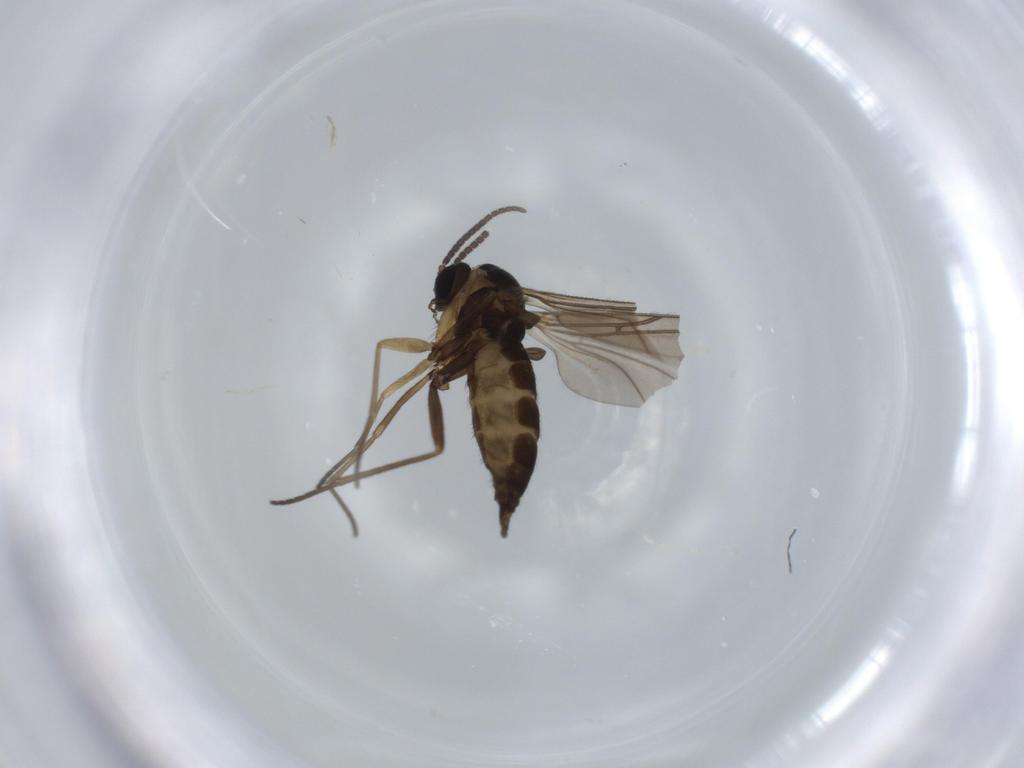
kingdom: Animalia
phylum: Arthropoda
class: Insecta
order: Diptera
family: Sciaridae
